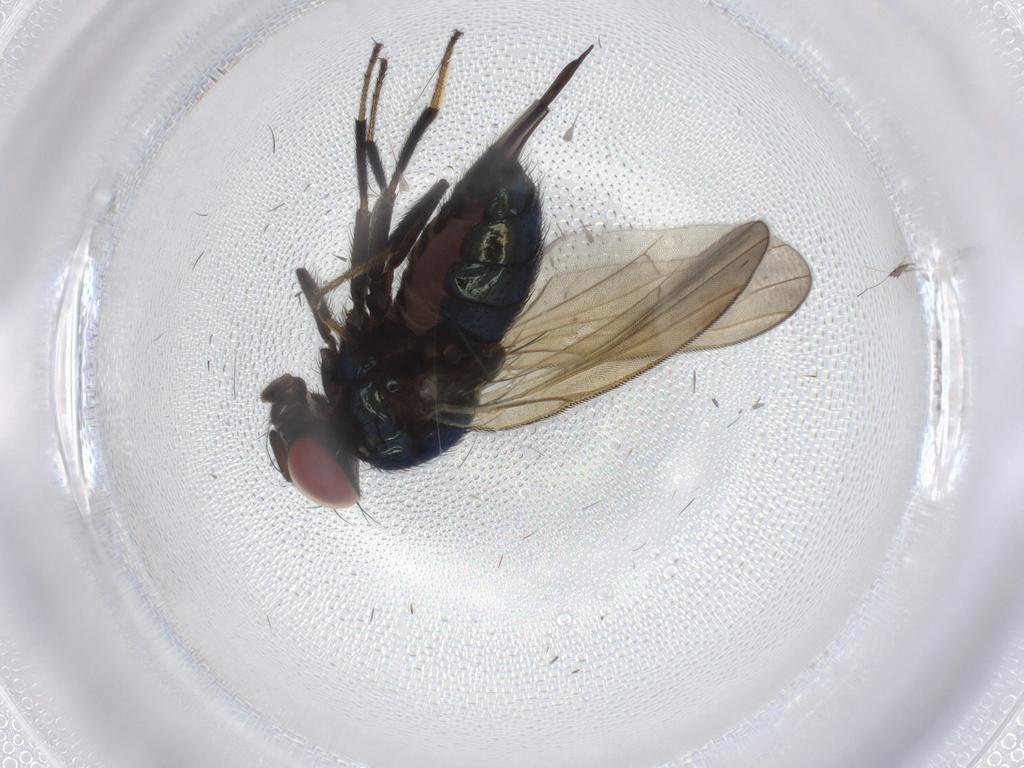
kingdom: Animalia
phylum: Arthropoda
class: Insecta
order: Diptera
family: Lonchaeidae
